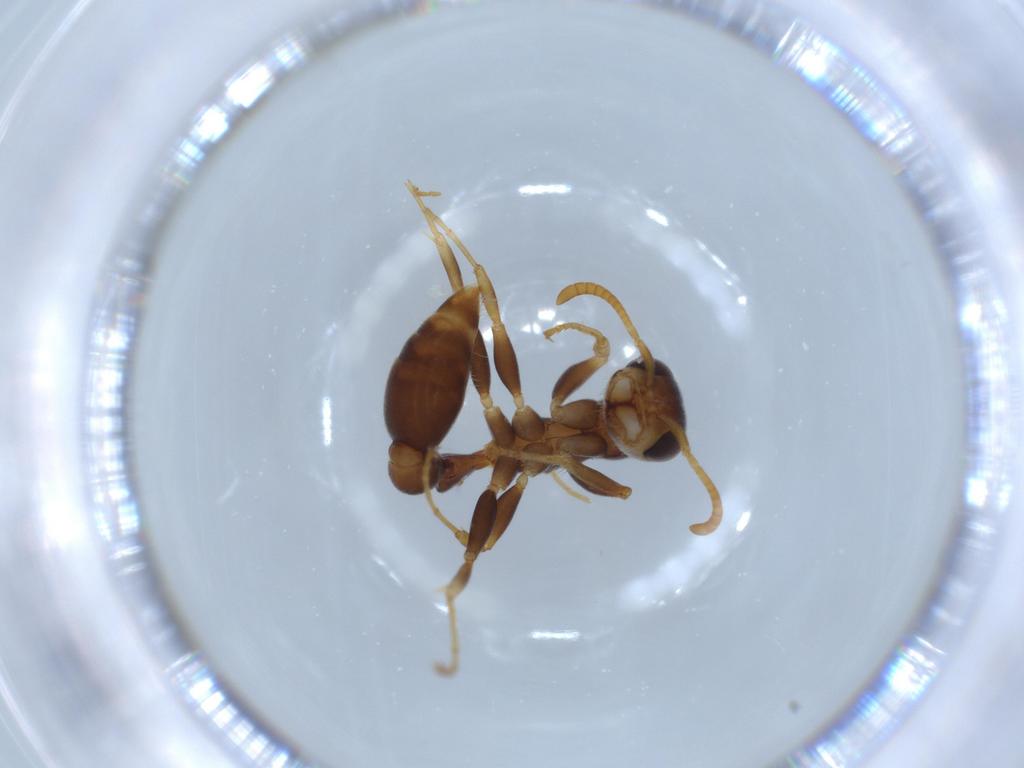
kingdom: Animalia
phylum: Arthropoda
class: Insecta
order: Hymenoptera
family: Formicidae
